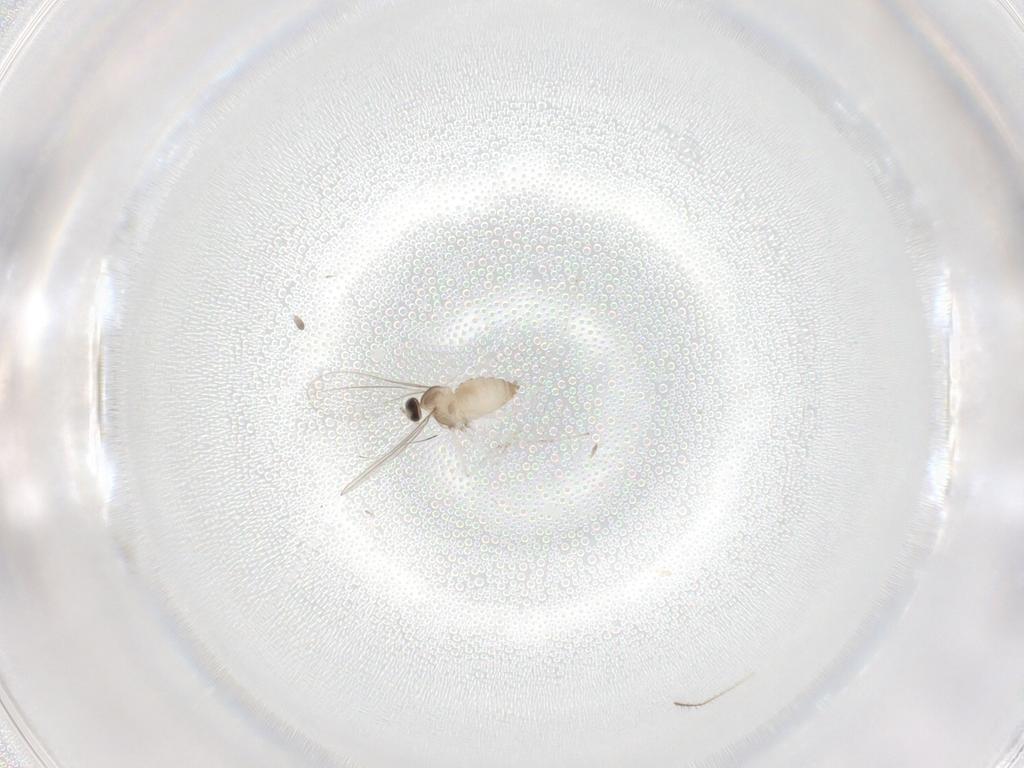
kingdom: Animalia
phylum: Arthropoda
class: Insecta
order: Diptera
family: Cecidomyiidae
